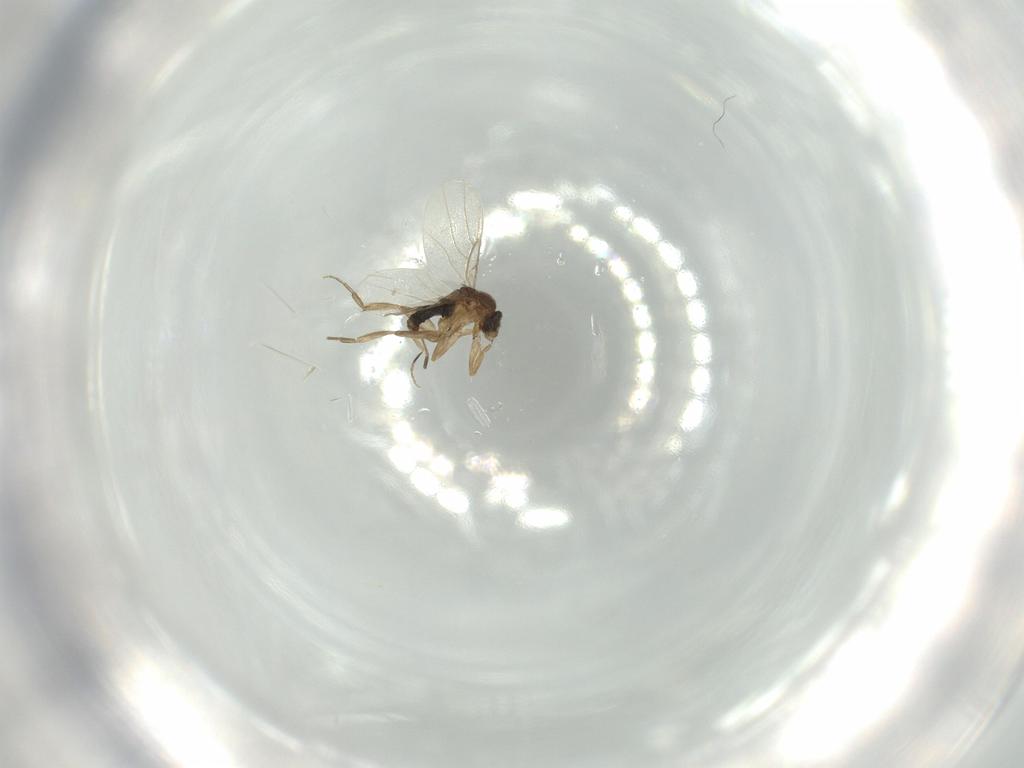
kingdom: Animalia
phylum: Arthropoda
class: Insecta
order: Diptera
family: Phoridae
